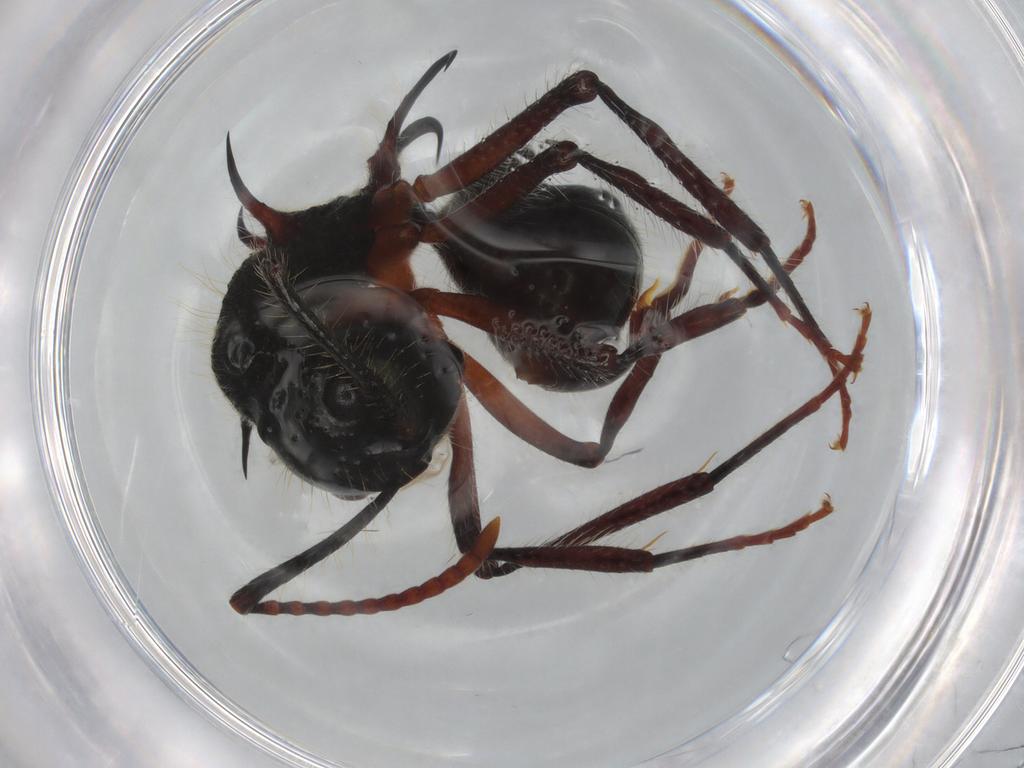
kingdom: Animalia
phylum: Arthropoda
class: Insecta
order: Hymenoptera
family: Formicidae
